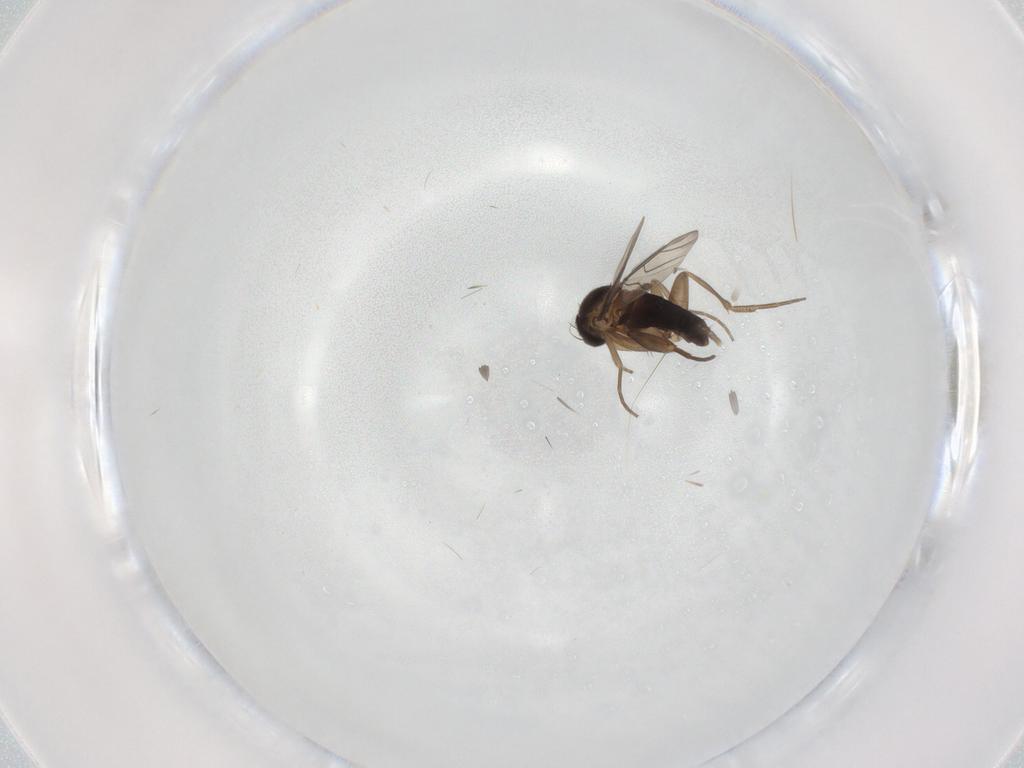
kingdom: Animalia
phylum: Arthropoda
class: Insecta
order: Diptera
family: Phoridae
